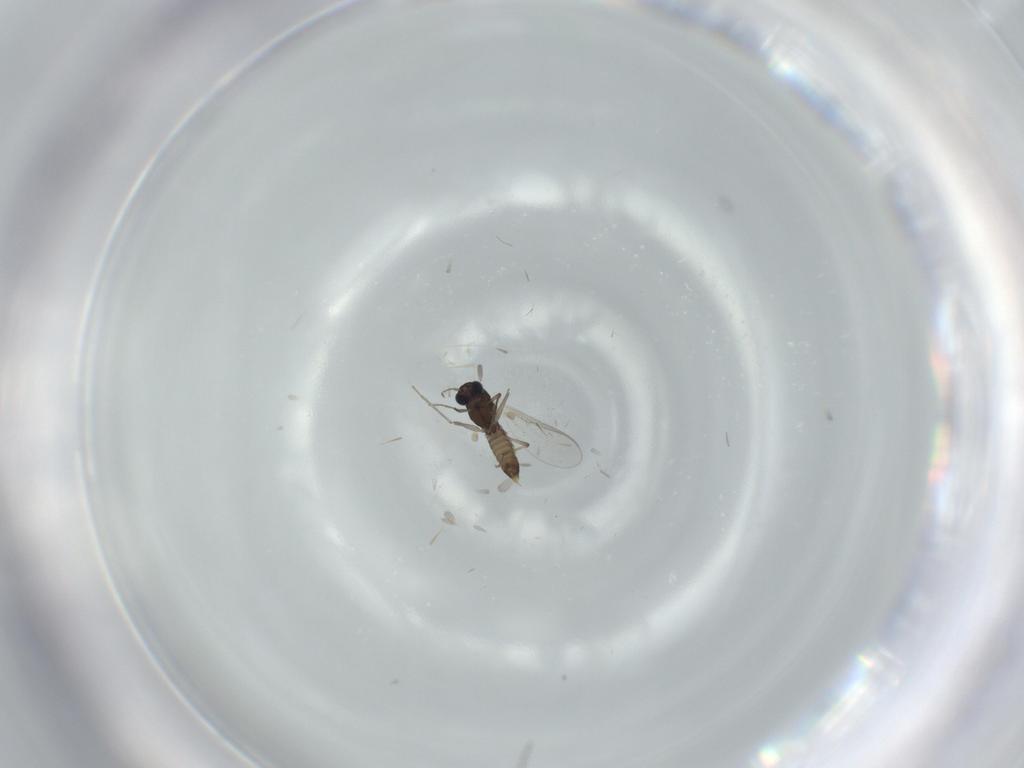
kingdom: Animalia
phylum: Arthropoda
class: Insecta
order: Diptera
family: Chironomidae
